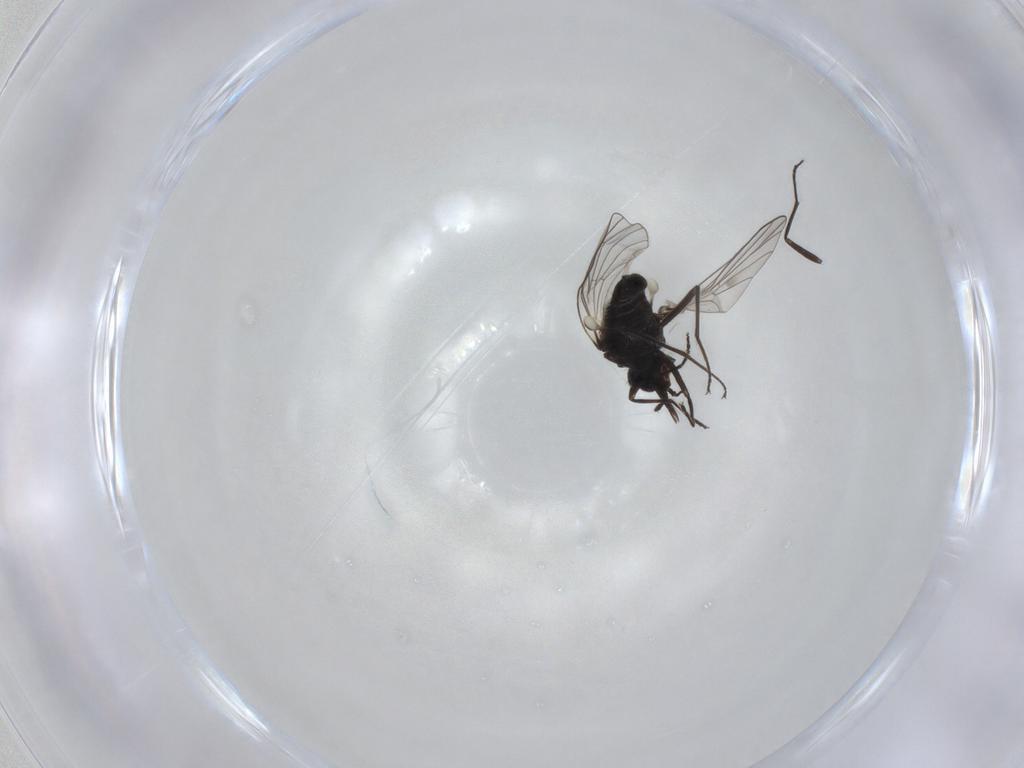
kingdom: Animalia
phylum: Arthropoda
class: Insecta
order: Diptera
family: Bombyliidae
